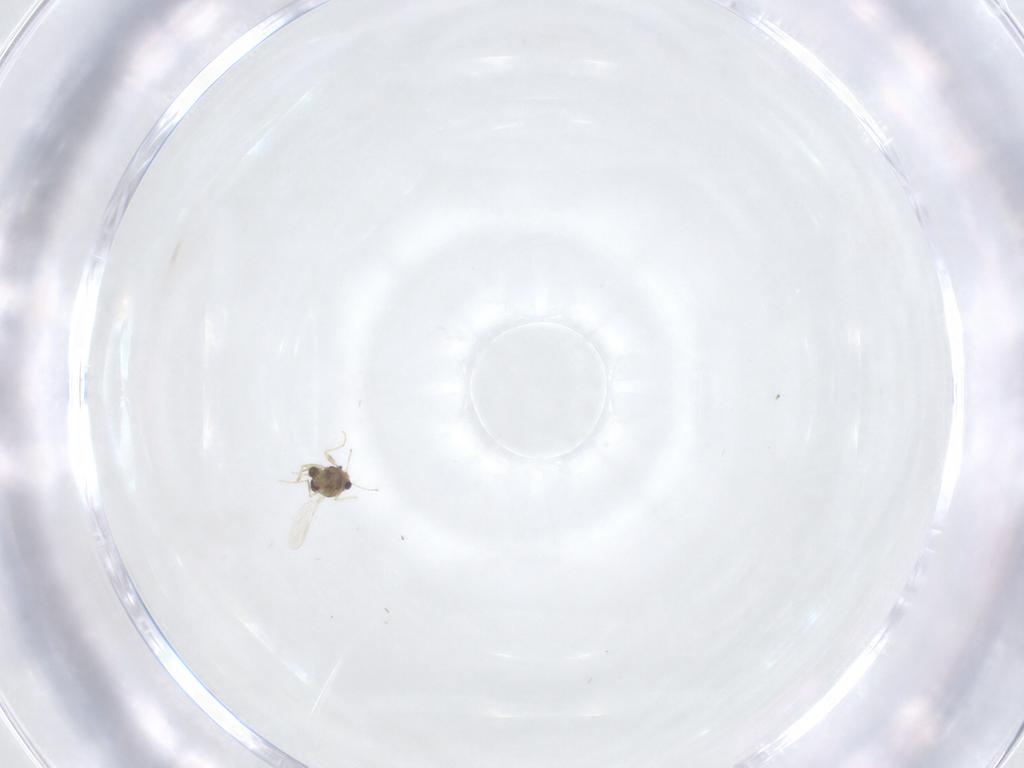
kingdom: Animalia
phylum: Arthropoda
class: Insecta
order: Diptera
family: Chironomidae
